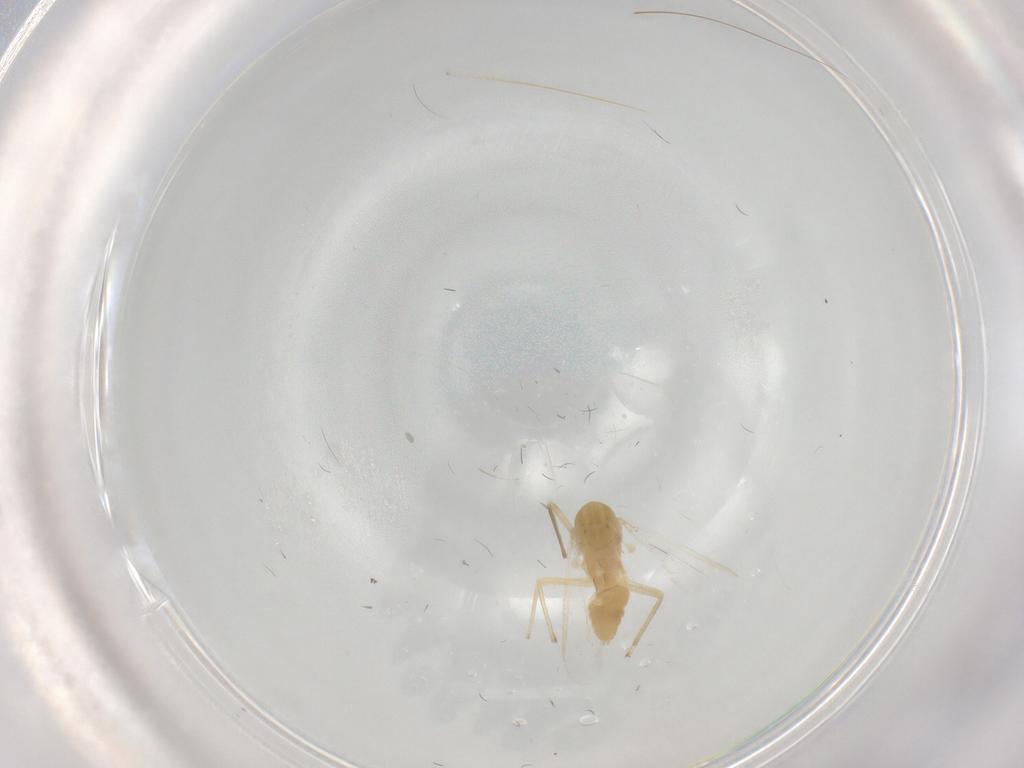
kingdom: Animalia
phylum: Arthropoda
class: Insecta
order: Diptera
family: Chironomidae
